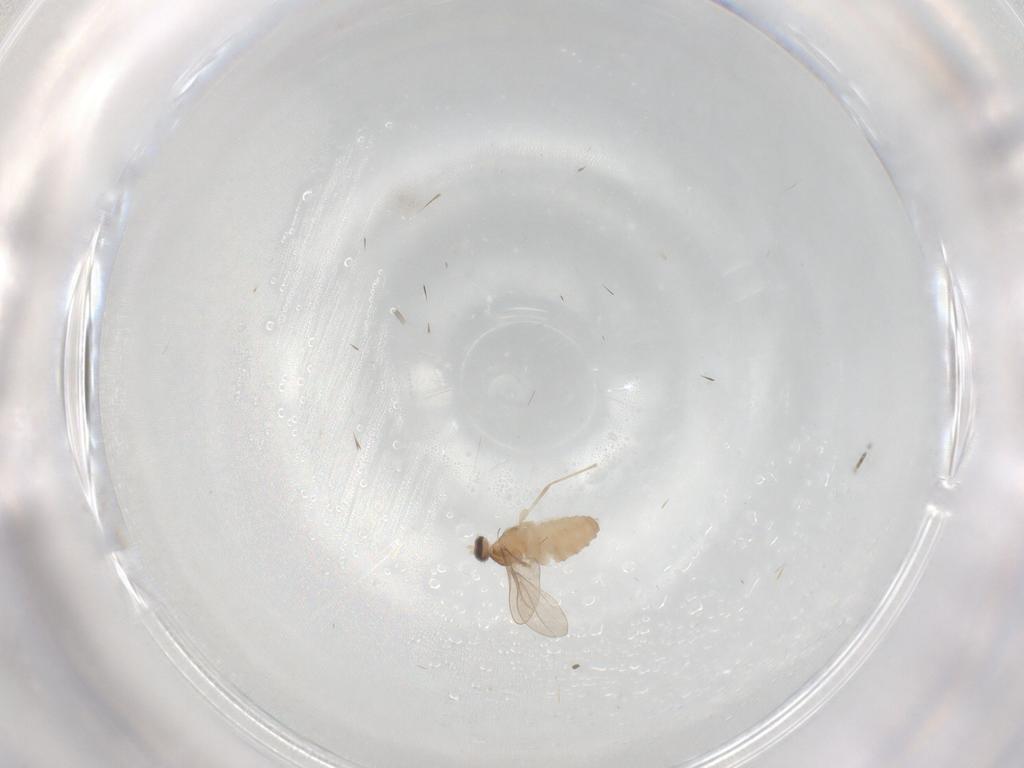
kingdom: Animalia
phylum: Arthropoda
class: Insecta
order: Diptera
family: Cecidomyiidae
